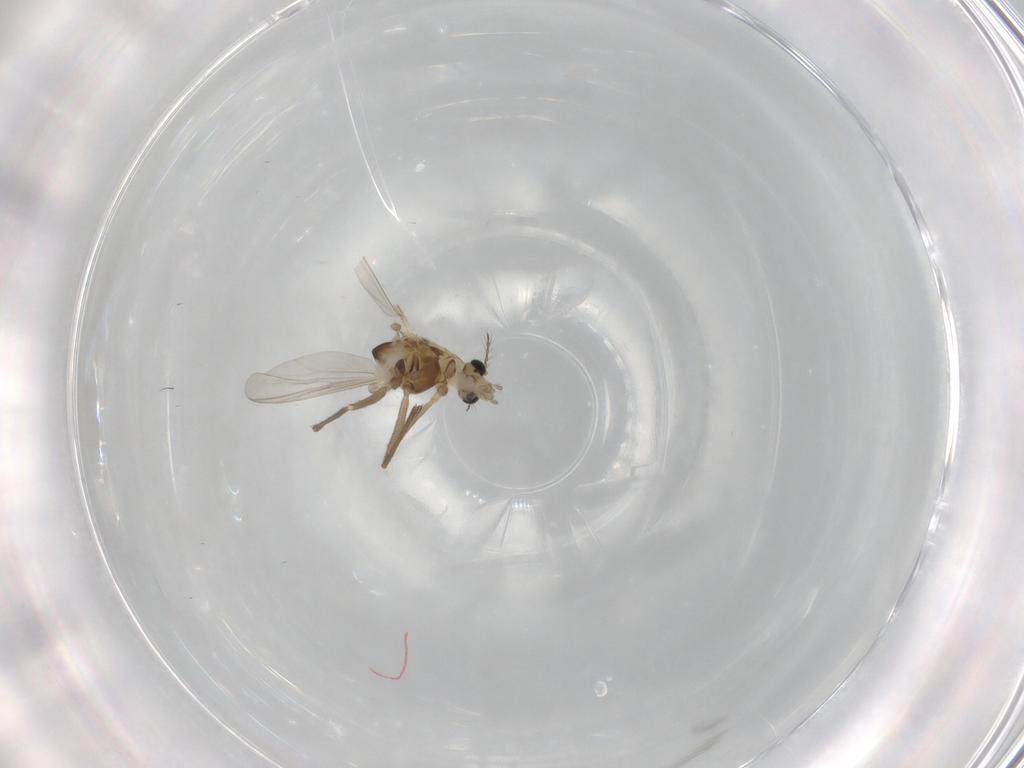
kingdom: Animalia
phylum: Arthropoda
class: Insecta
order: Diptera
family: Chironomidae
